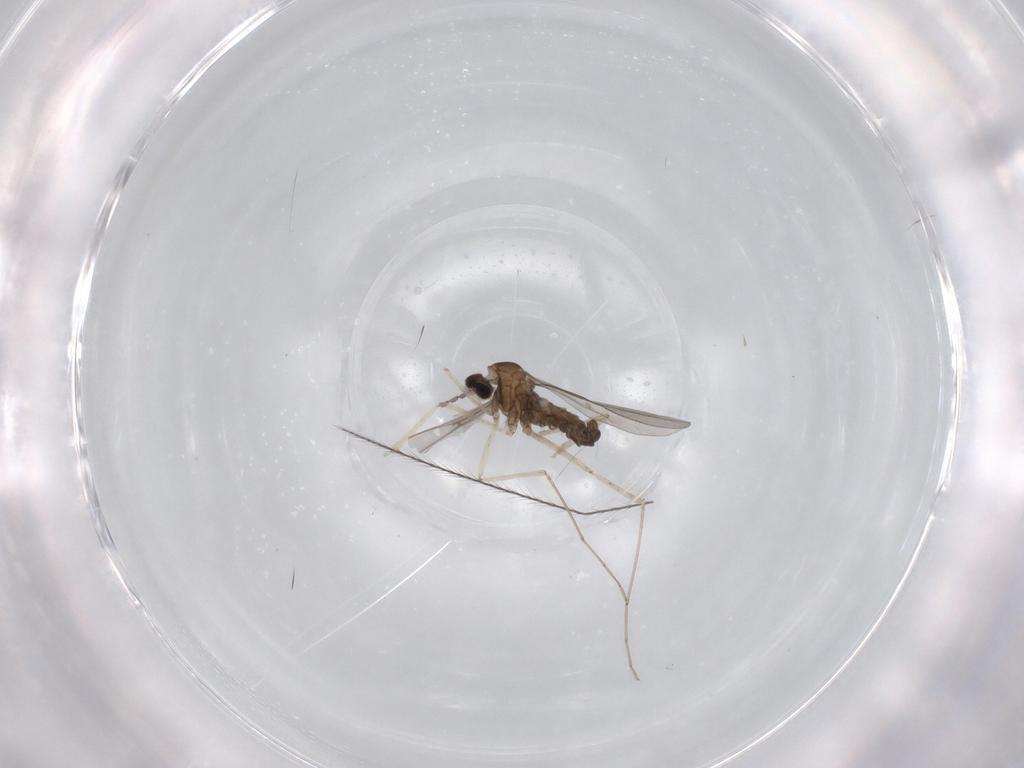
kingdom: Animalia
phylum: Arthropoda
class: Insecta
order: Diptera
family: Cecidomyiidae
